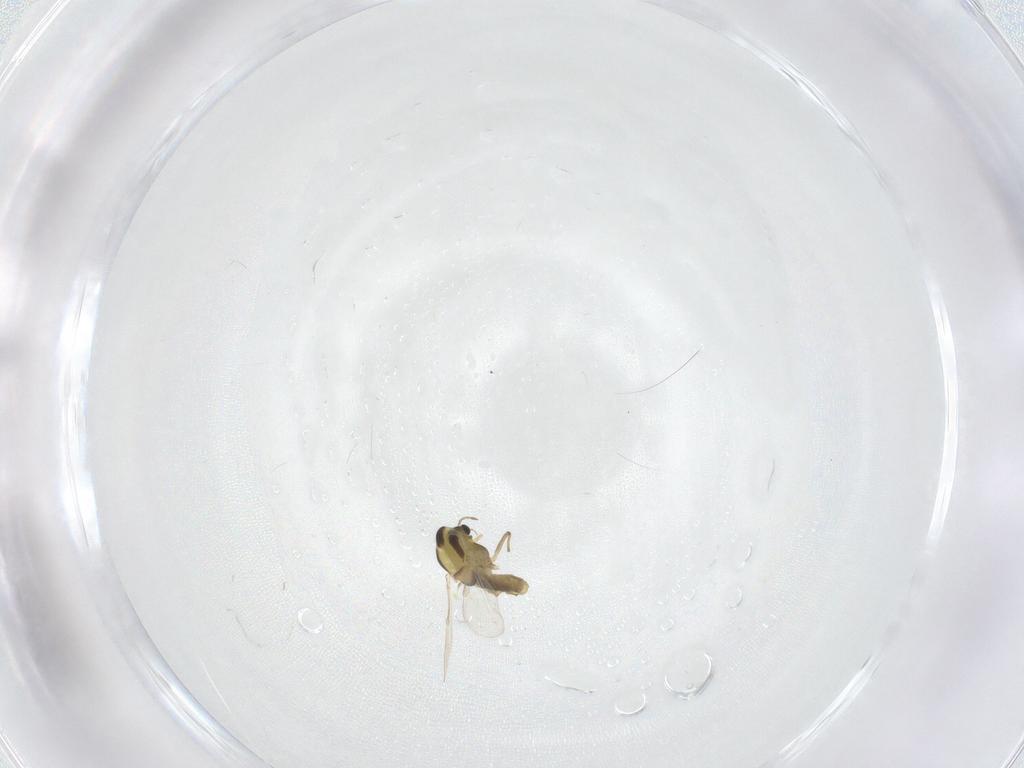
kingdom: Animalia
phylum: Arthropoda
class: Insecta
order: Diptera
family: Chironomidae
